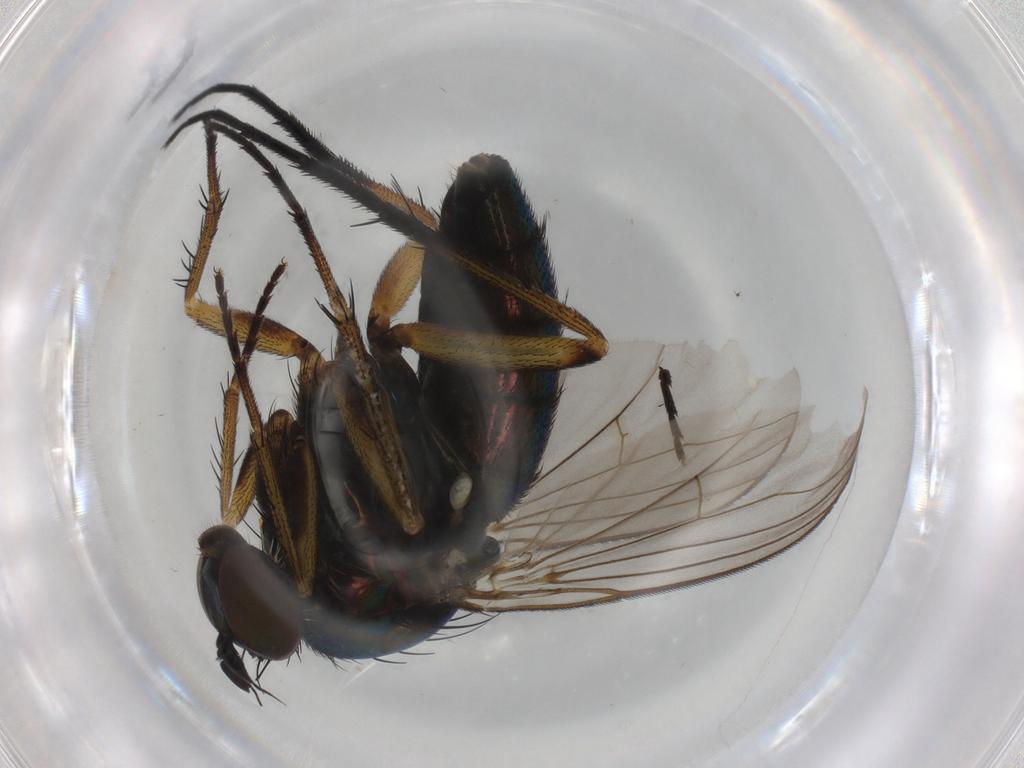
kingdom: Animalia
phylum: Arthropoda
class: Insecta
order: Diptera
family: Dolichopodidae
